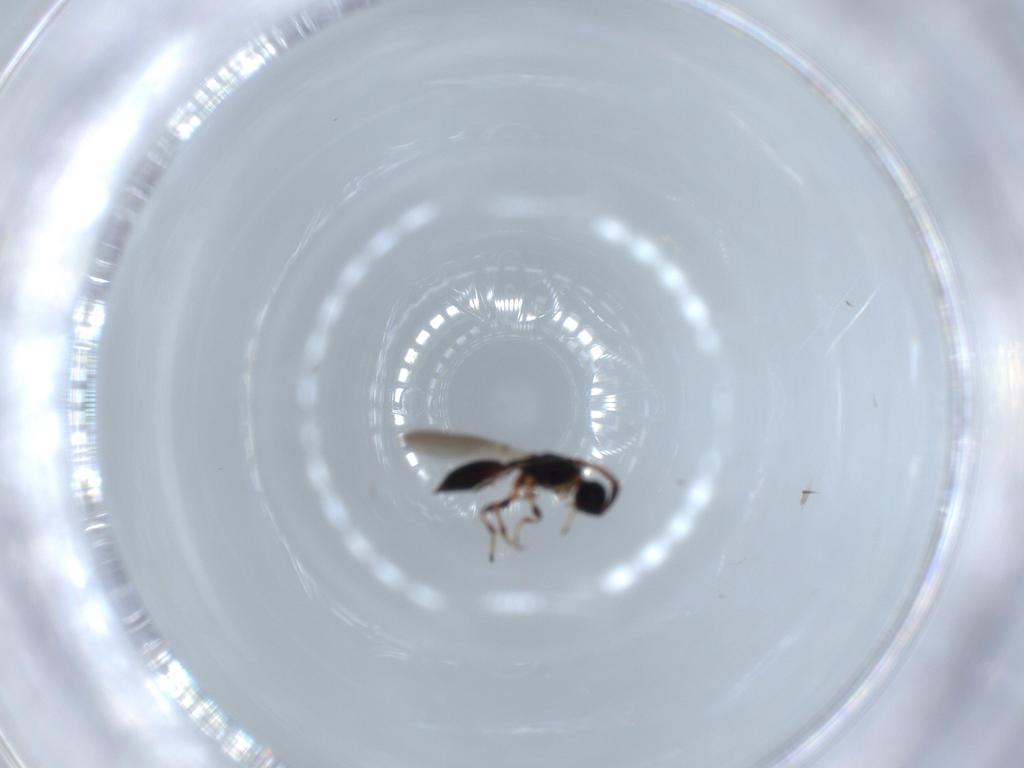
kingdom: Animalia
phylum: Arthropoda
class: Insecta
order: Hymenoptera
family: Diapriidae
